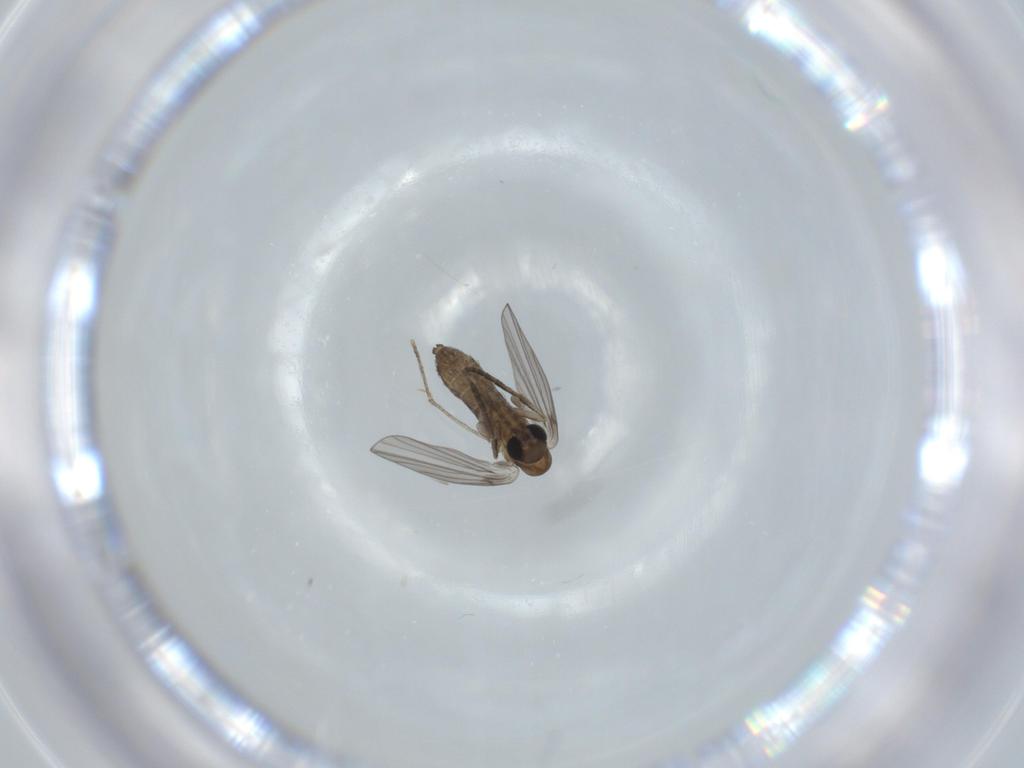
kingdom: Animalia
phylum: Arthropoda
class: Insecta
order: Diptera
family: Psychodidae
